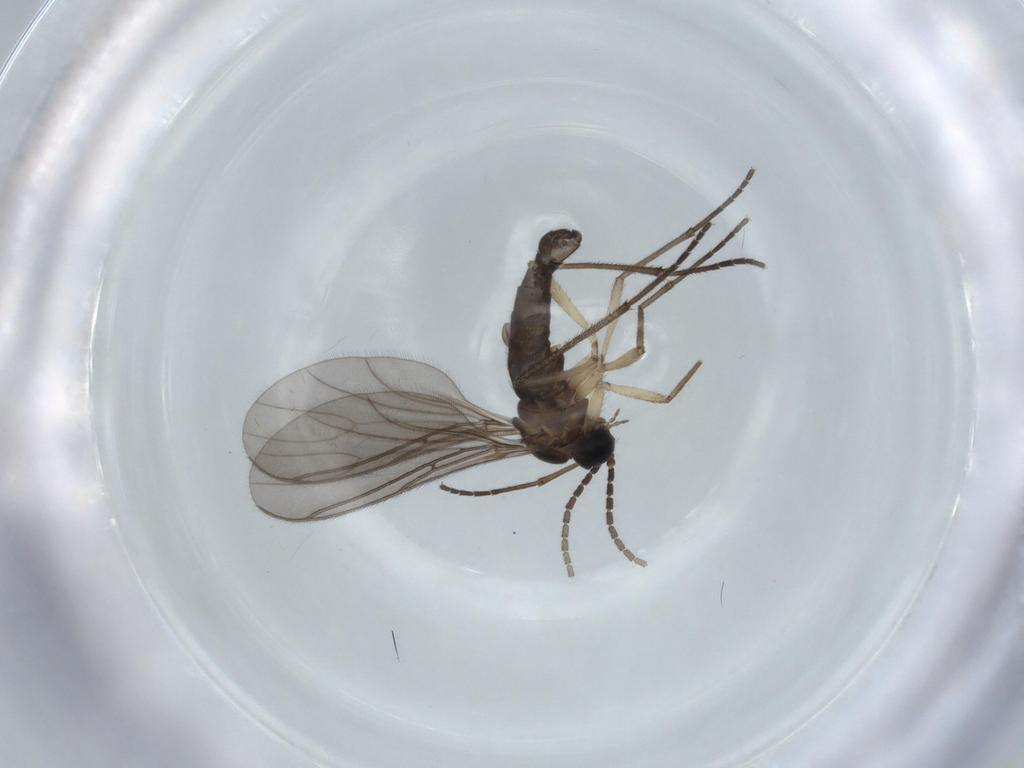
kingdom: Animalia
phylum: Arthropoda
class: Insecta
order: Diptera
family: Sciaridae
